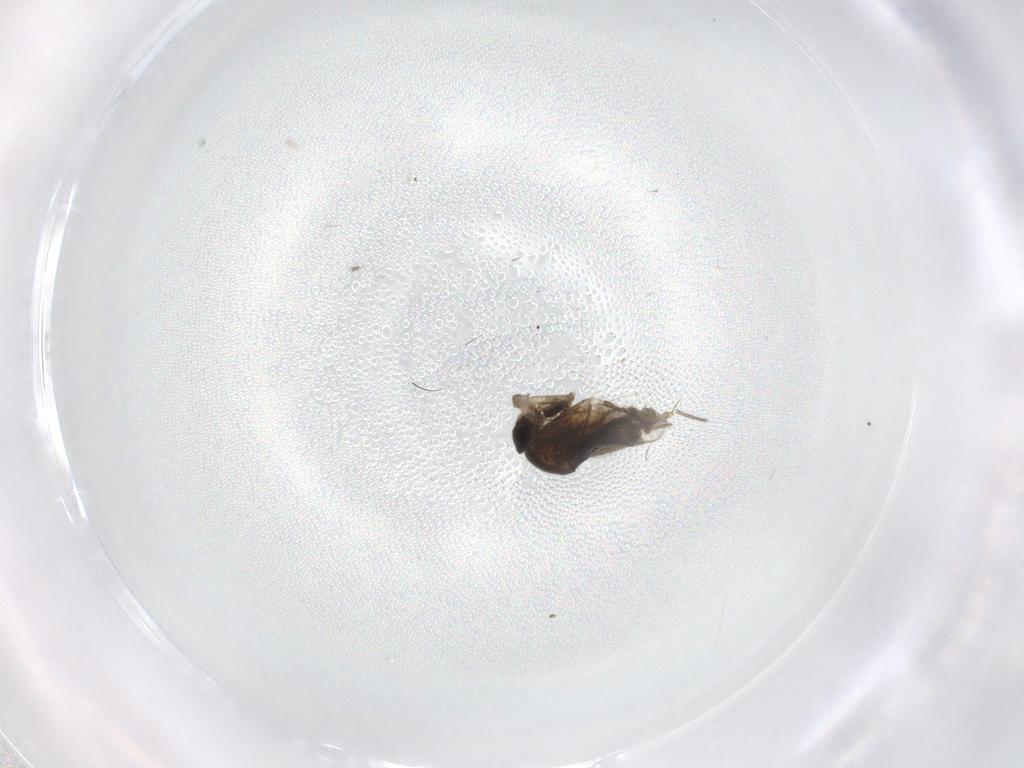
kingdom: Animalia
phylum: Arthropoda
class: Insecta
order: Diptera
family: Phoridae
